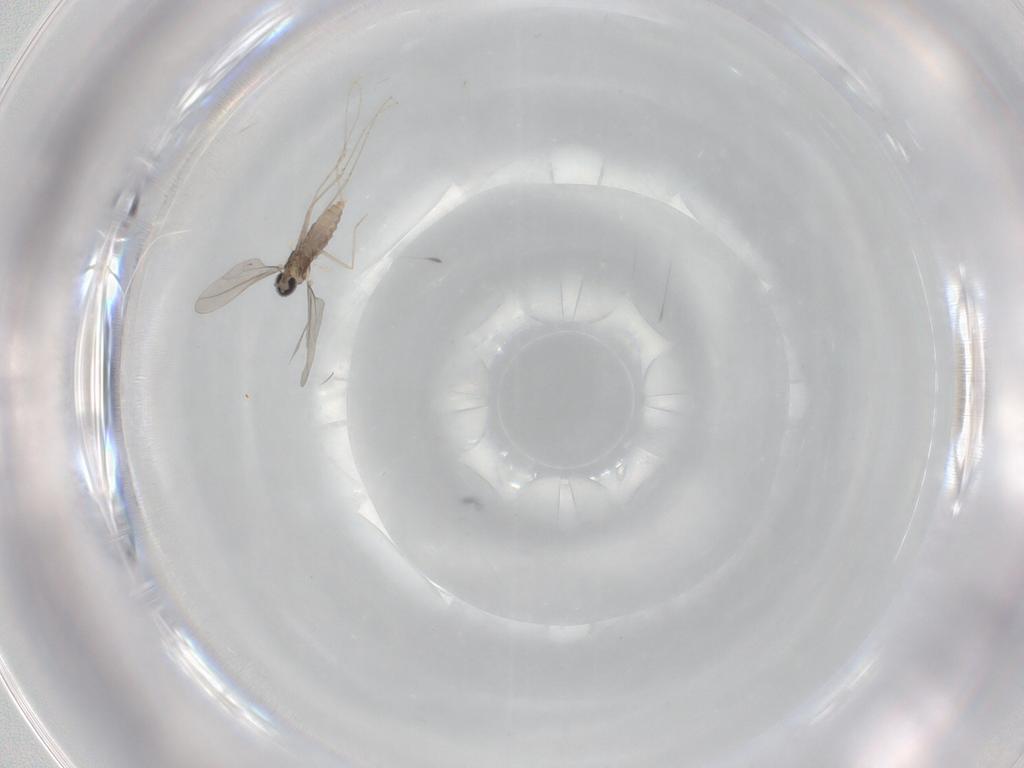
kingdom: Animalia
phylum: Arthropoda
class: Insecta
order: Diptera
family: Cecidomyiidae
